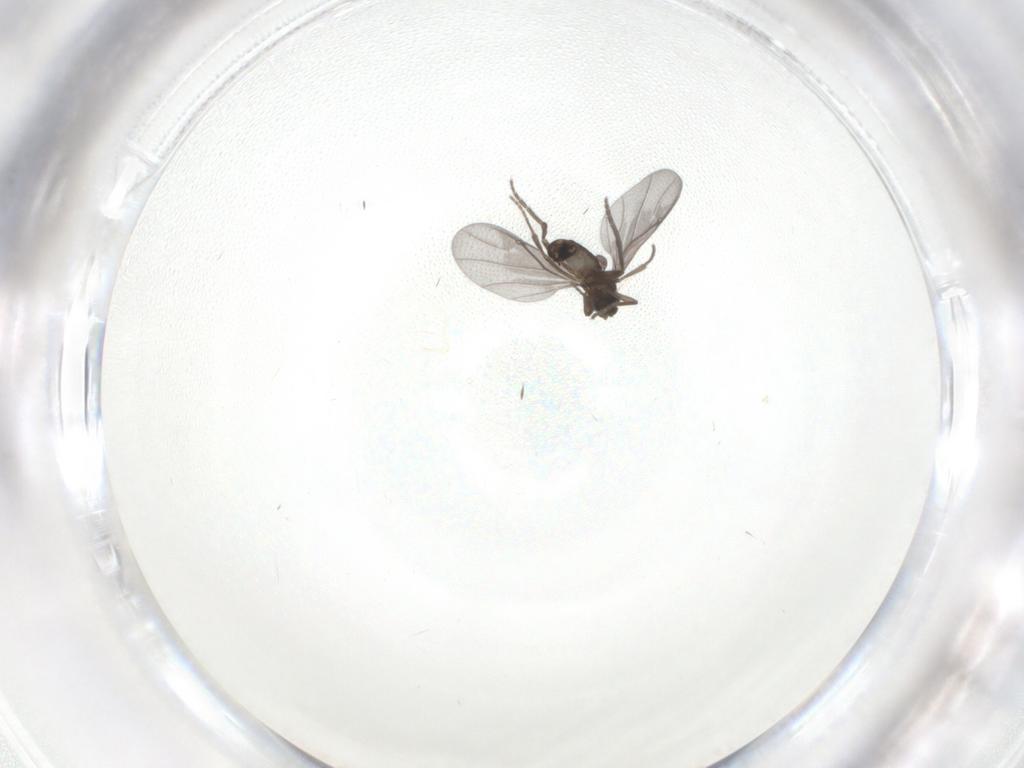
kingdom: Animalia
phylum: Arthropoda
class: Insecta
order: Diptera
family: Phoridae
